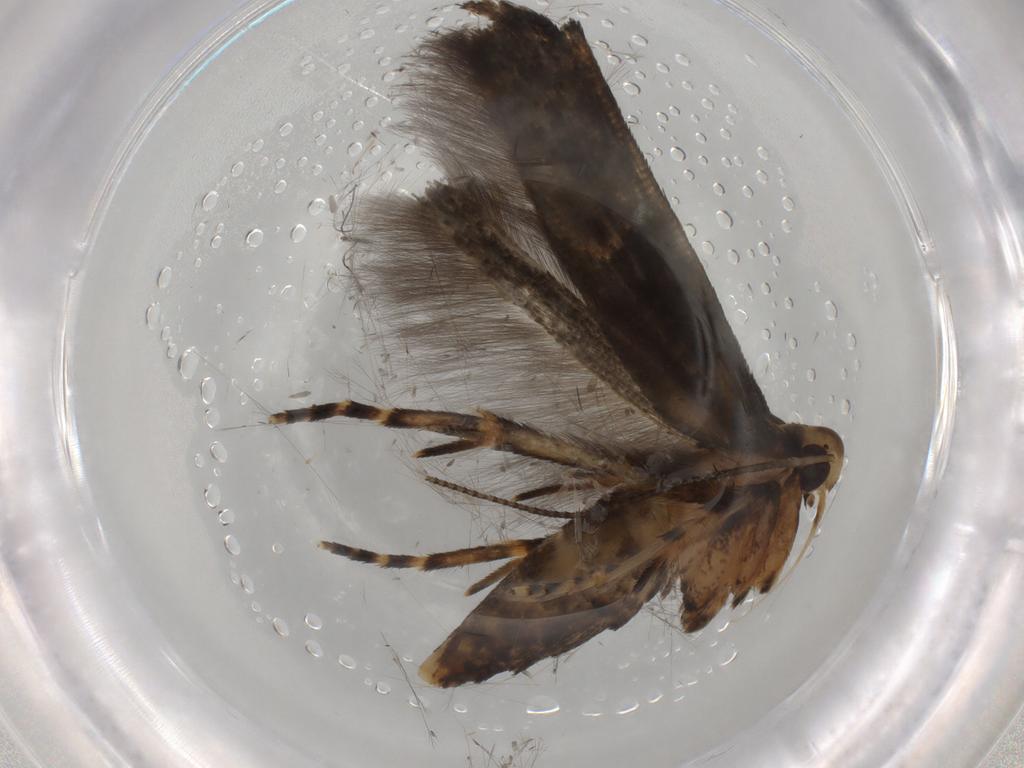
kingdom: Animalia
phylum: Arthropoda
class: Insecta
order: Lepidoptera
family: Cosmopterigidae
